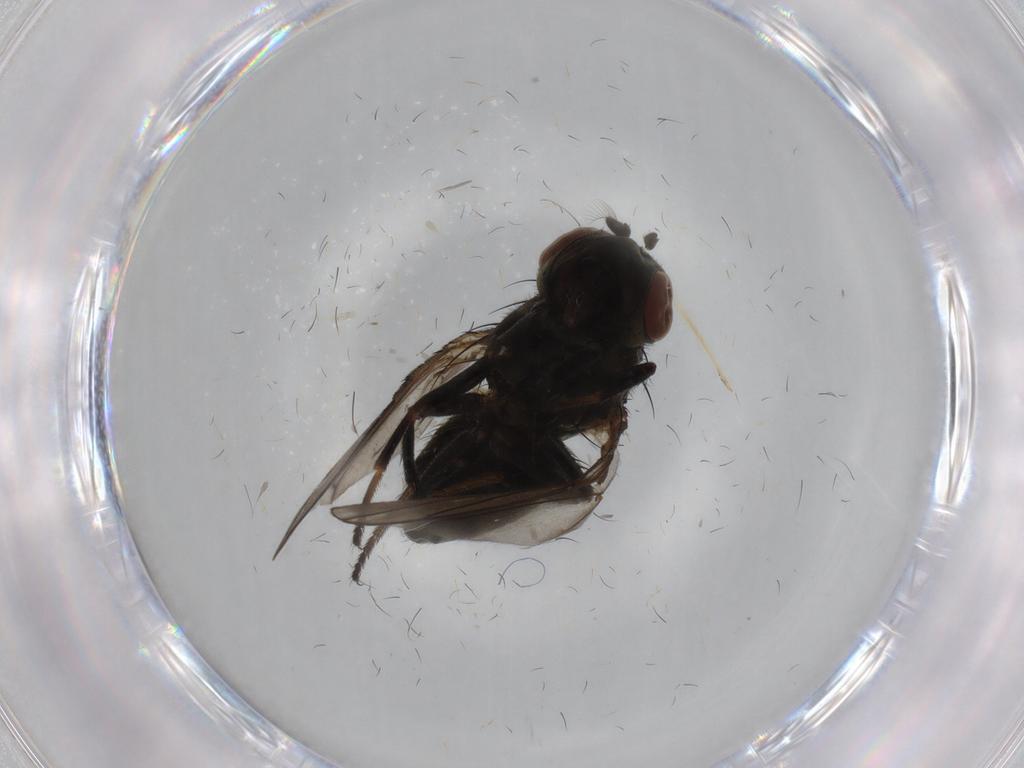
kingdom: Animalia
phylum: Arthropoda
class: Insecta
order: Diptera
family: Ephydridae
